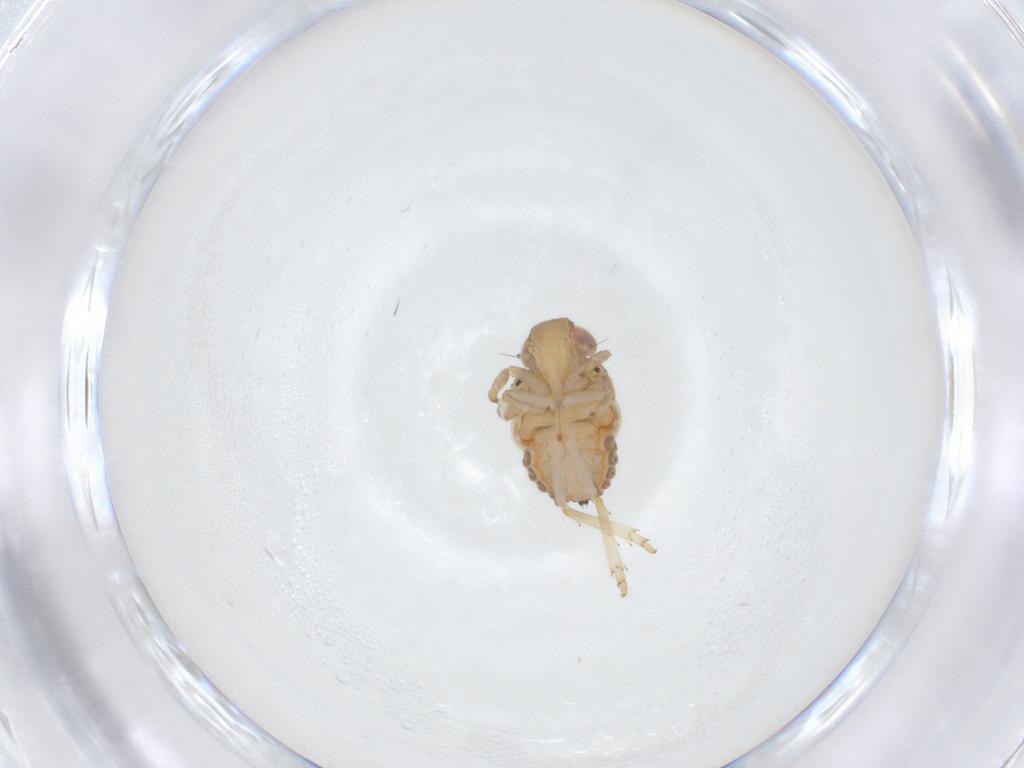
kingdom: Animalia
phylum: Arthropoda
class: Insecta
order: Hemiptera
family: Issidae
